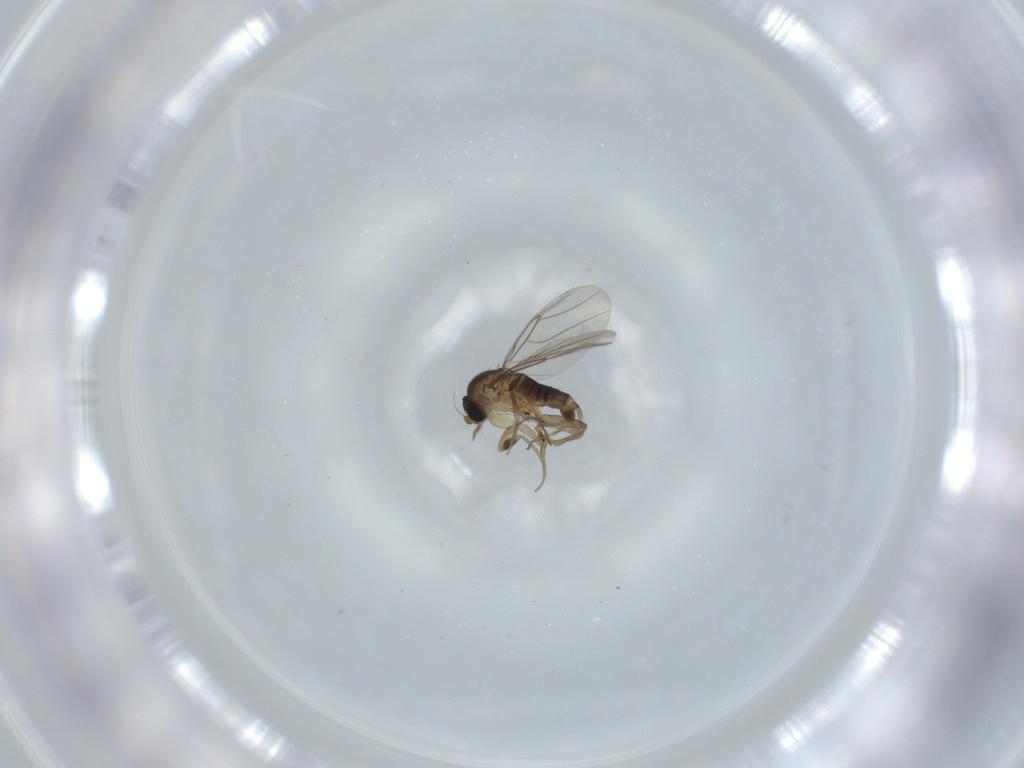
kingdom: Animalia
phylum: Arthropoda
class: Insecta
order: Diptera
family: Phoridae
